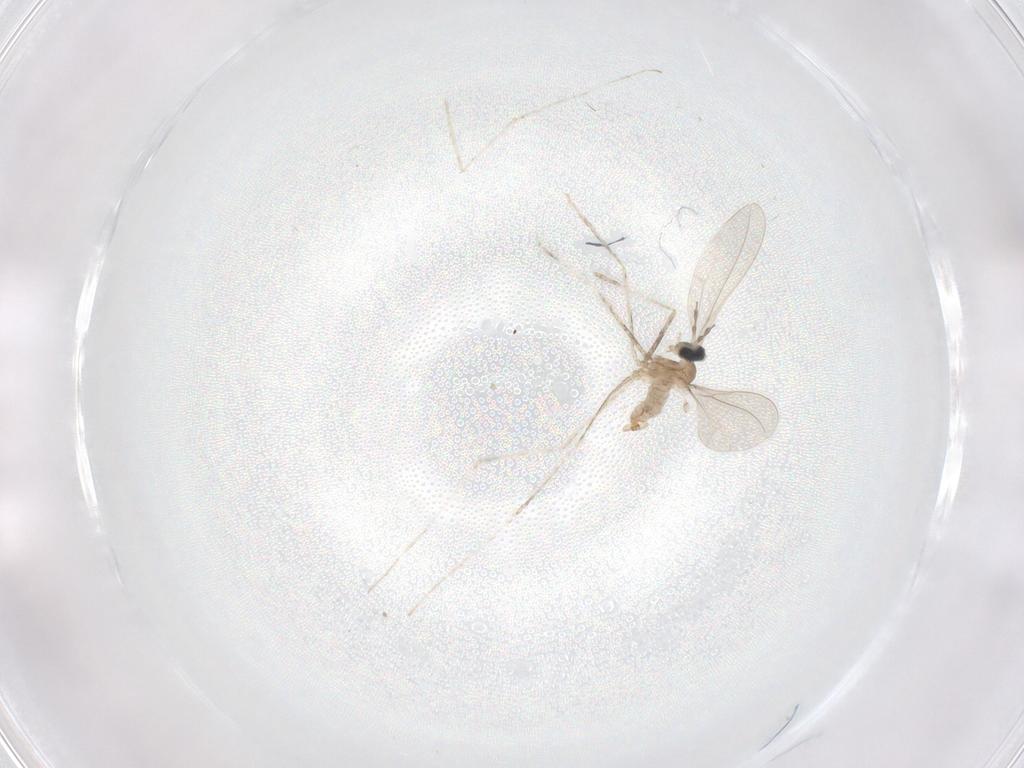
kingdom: Animalia
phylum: Arthropoda
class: Insecta
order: Diptera
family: Cecidomyiidae
